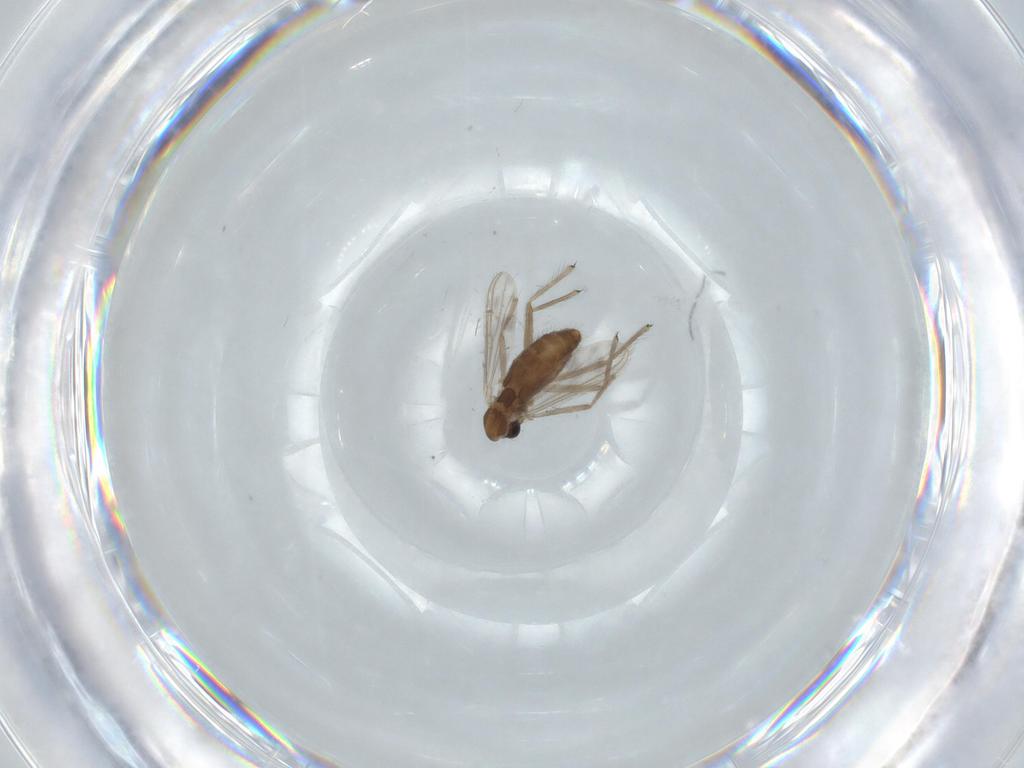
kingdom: Animalia
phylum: Arthropoda
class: Insecta
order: Diptera
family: Chironomidae
